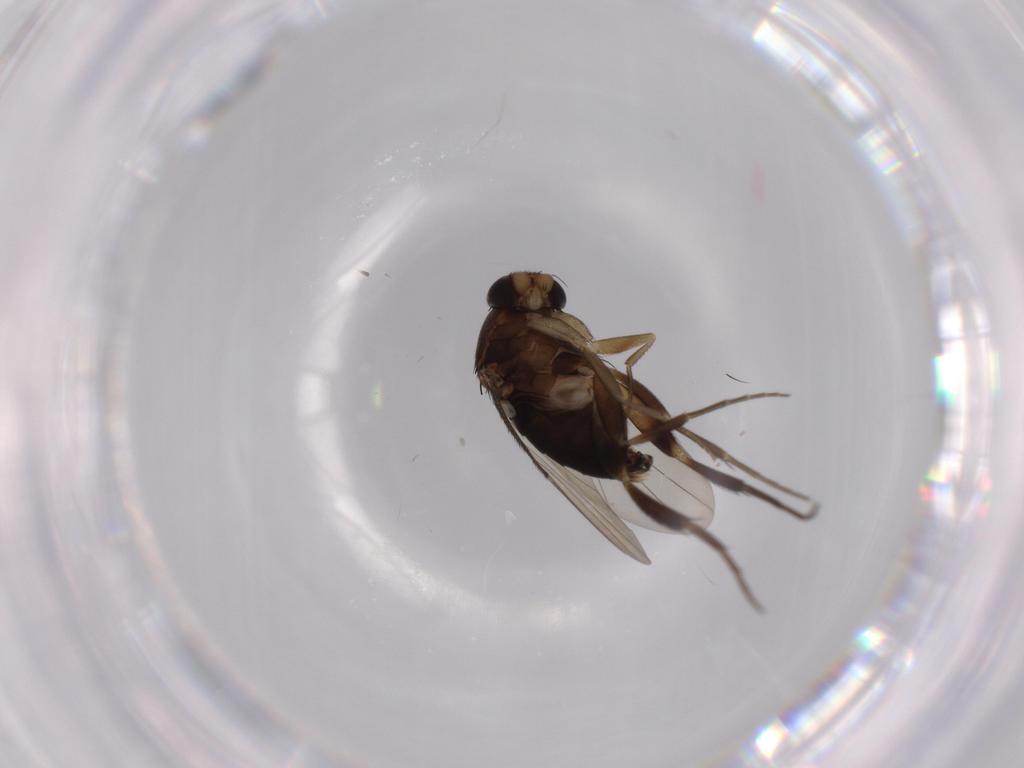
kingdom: Animalia
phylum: Arthropoda
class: Insecta
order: Diptera
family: Phoridae
